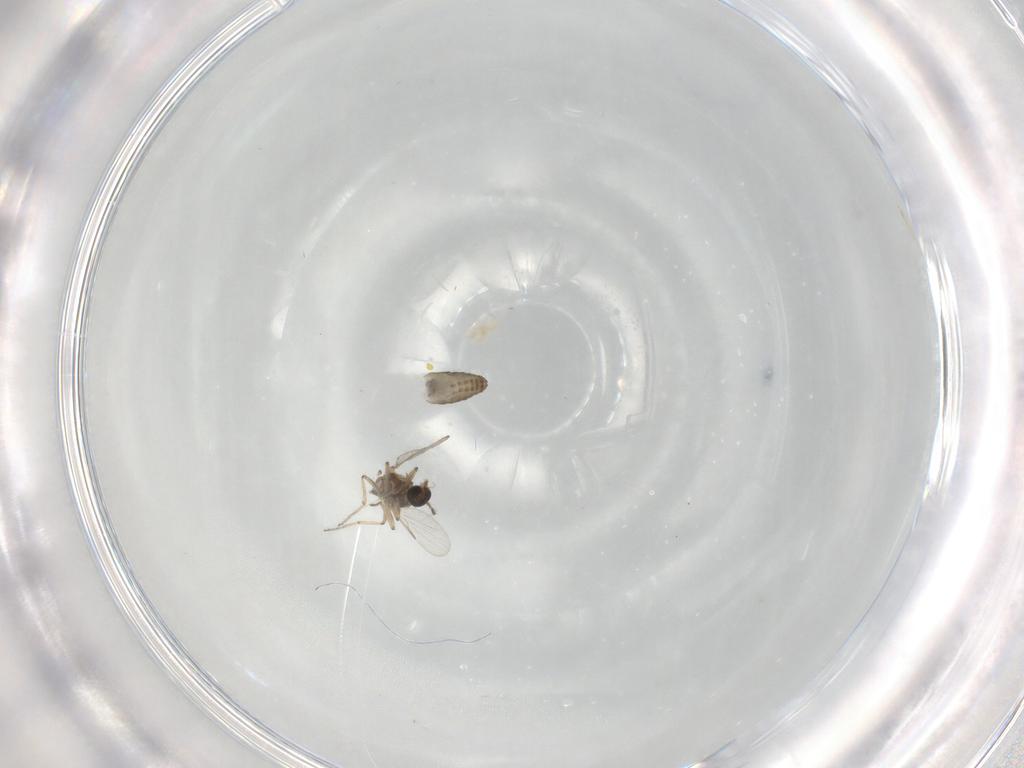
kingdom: Animalia
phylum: Arthropoda
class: Insecta
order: Diptera
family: Ceratopogonidae
